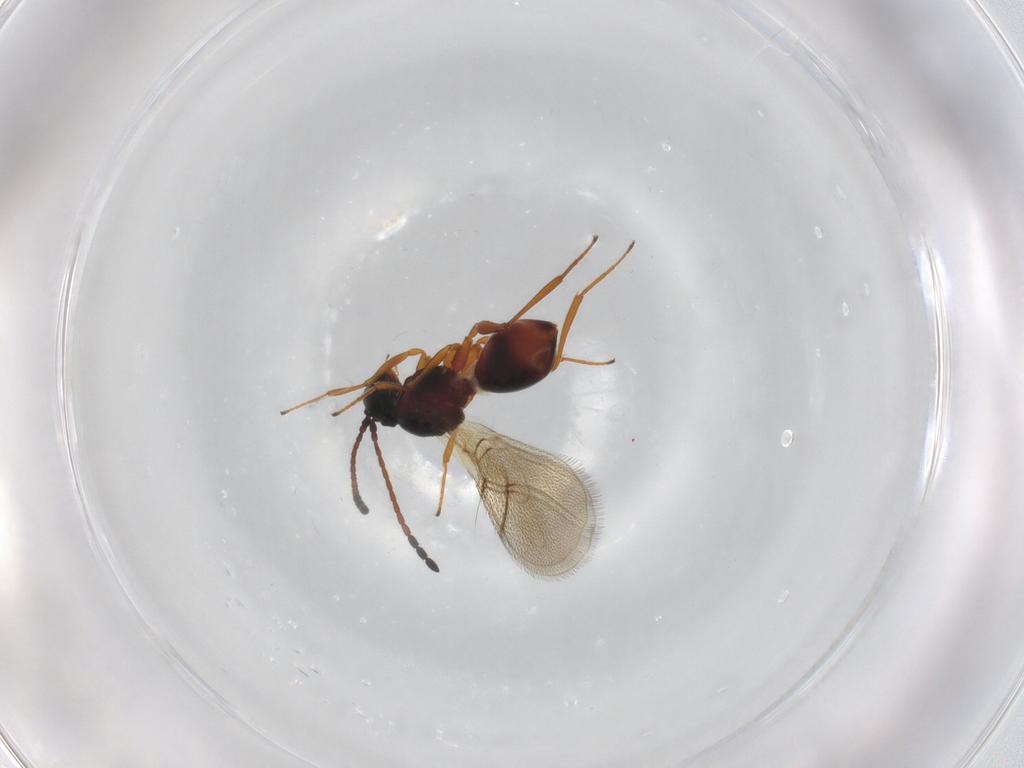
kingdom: Animalia
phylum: Arthropoda
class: Insecta
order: Hymenoptera
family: Figitidae
